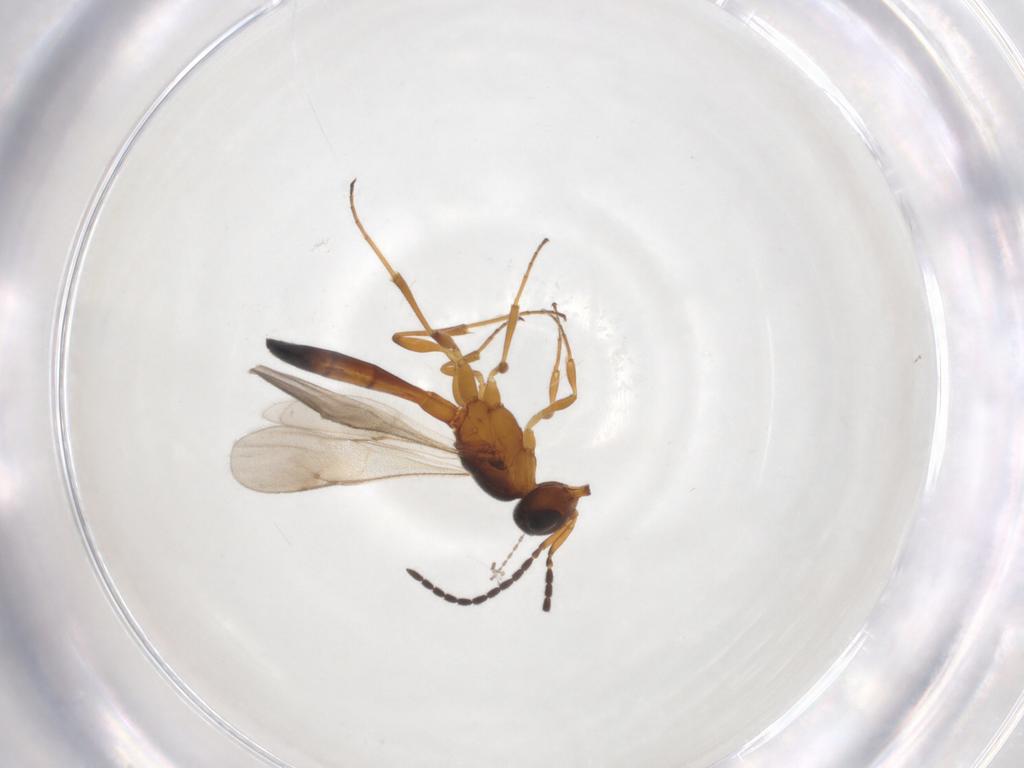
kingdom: Animalia
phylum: Arthropoda
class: Insecta
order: Hymenoptera
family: Scelionidae
